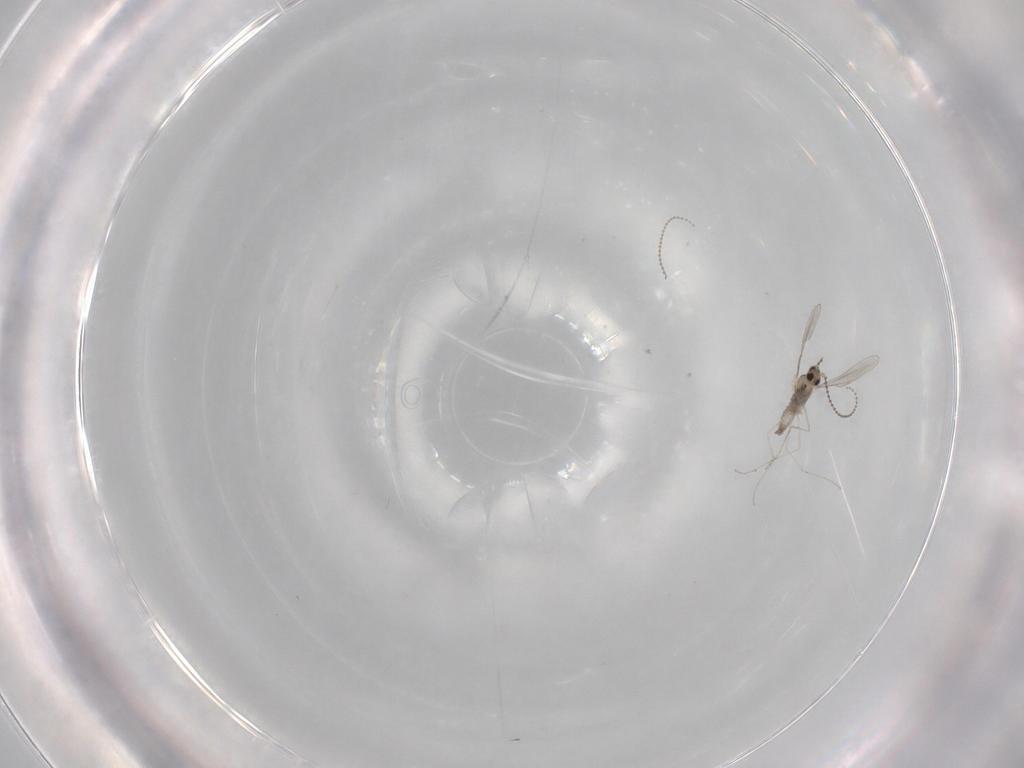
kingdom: Animalia
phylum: Arthropoda
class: Insecta
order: Diptera
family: Cecidomyiidae
